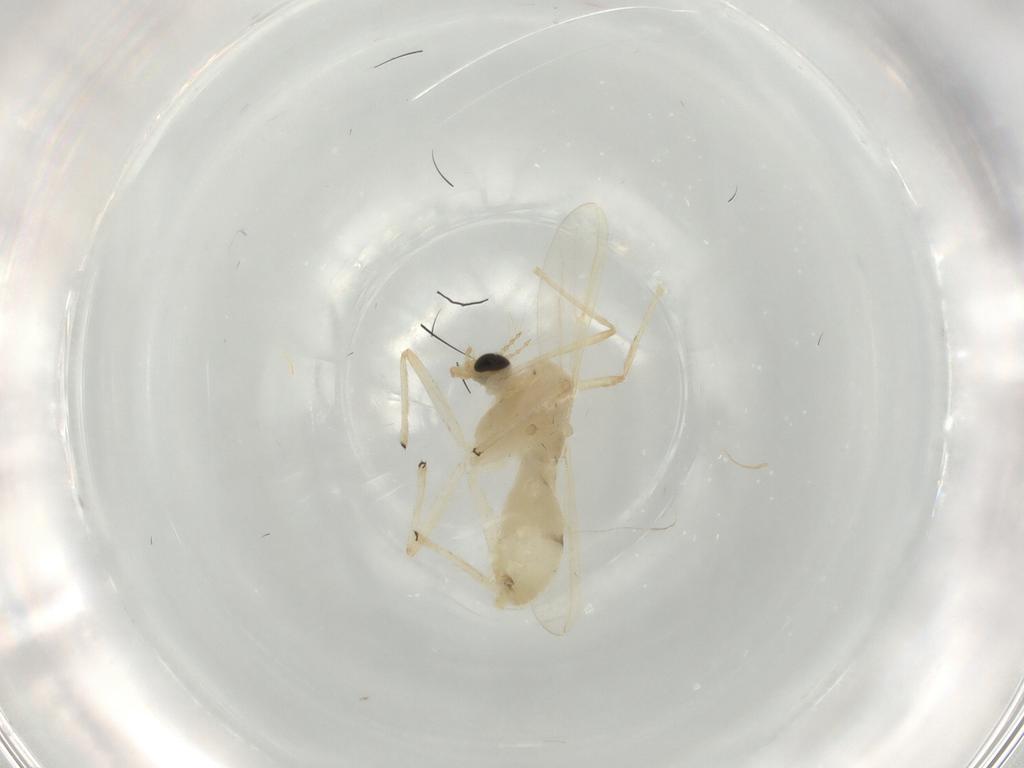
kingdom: Animalia
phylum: Arthropoda
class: Insecta
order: Diptera
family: Chironomidae
